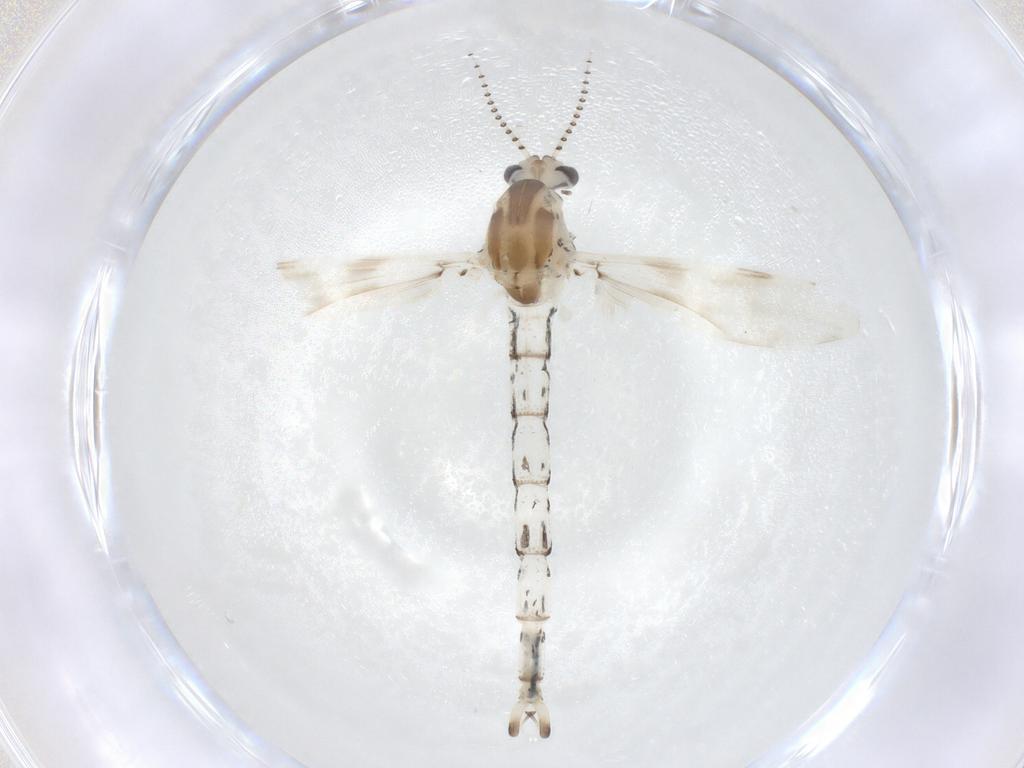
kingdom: Animalia
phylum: Arthropoda
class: Insecta
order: Diptera
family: Chaoboridae
